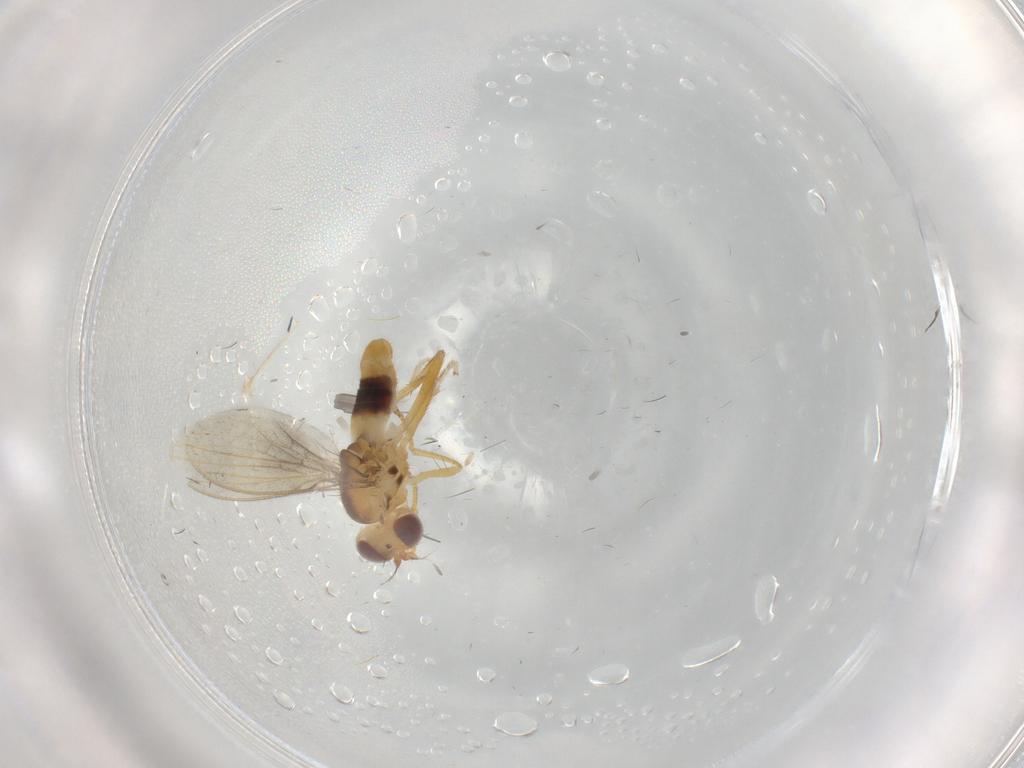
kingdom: Animalia
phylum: Arthropoda
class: Insecta
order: Diptera
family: Periscelididae
